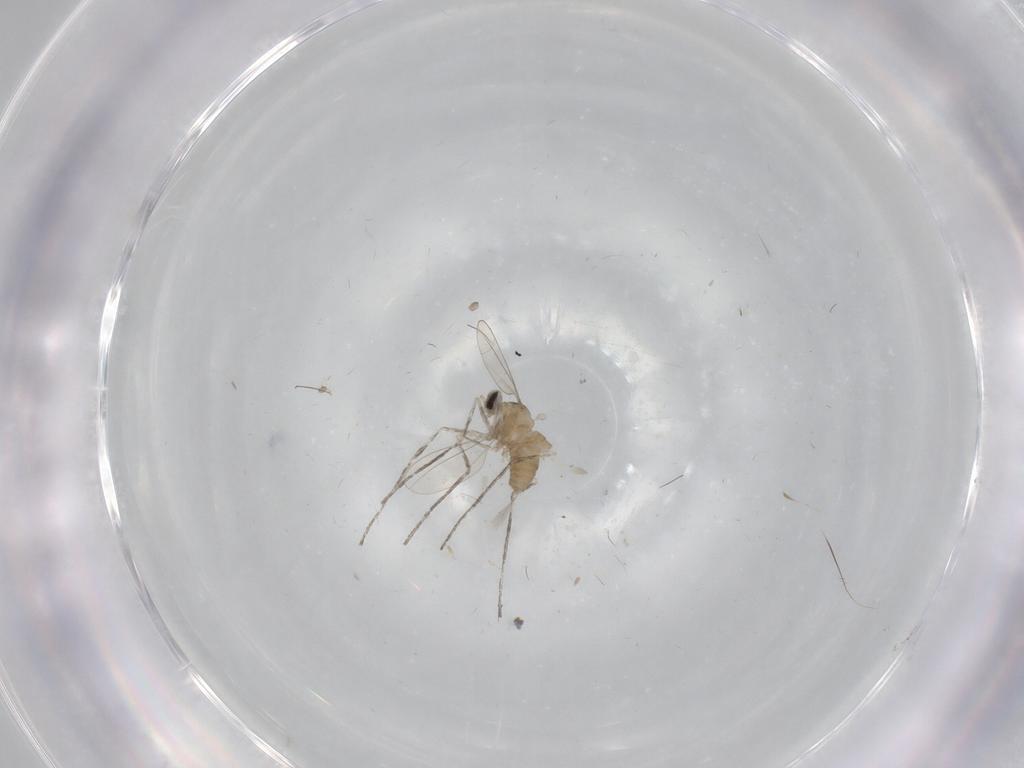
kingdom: Animalia
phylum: Arthropoda
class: Insecta
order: Diptera
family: Cecidomyiidae
